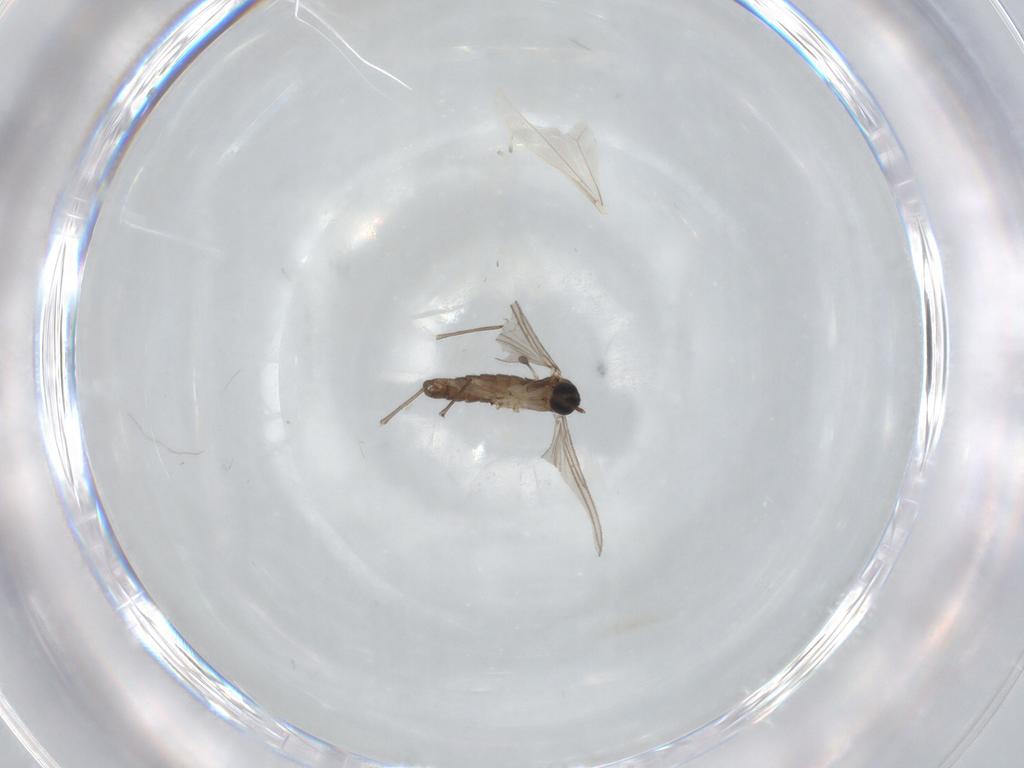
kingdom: Animalia
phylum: Arthropoda
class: Insecta
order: Diptera
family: Cecidomyiidae
